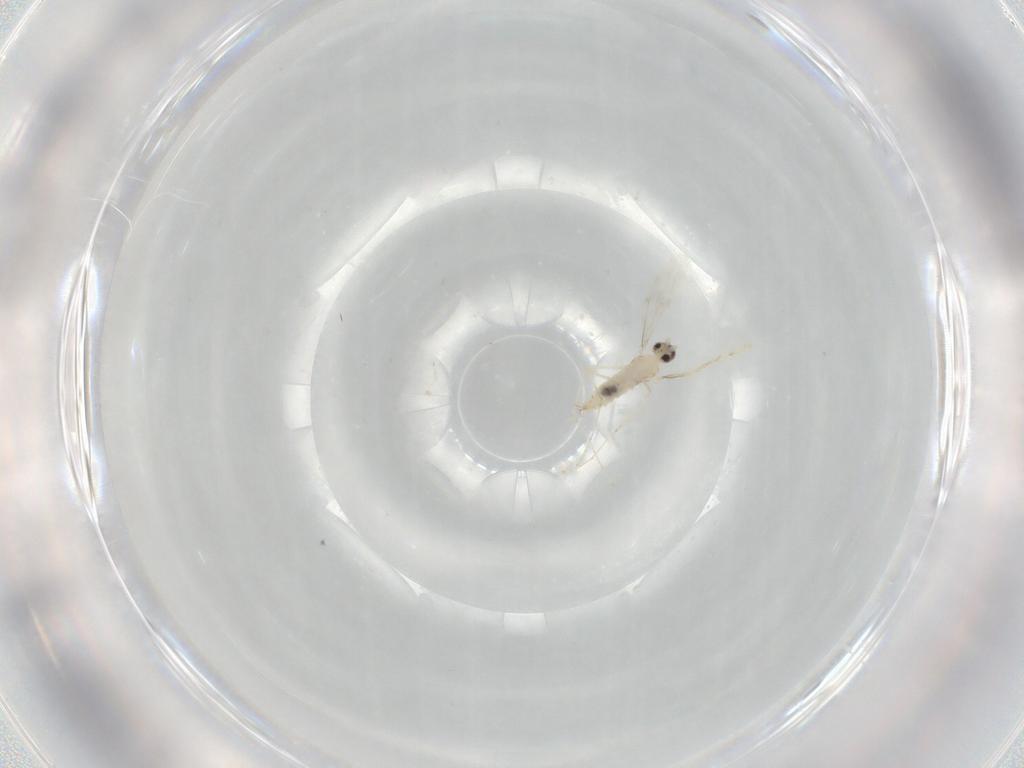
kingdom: Animalia
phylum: Arthropoda
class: Insecta
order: Diptera
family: Cecidomyiidae
